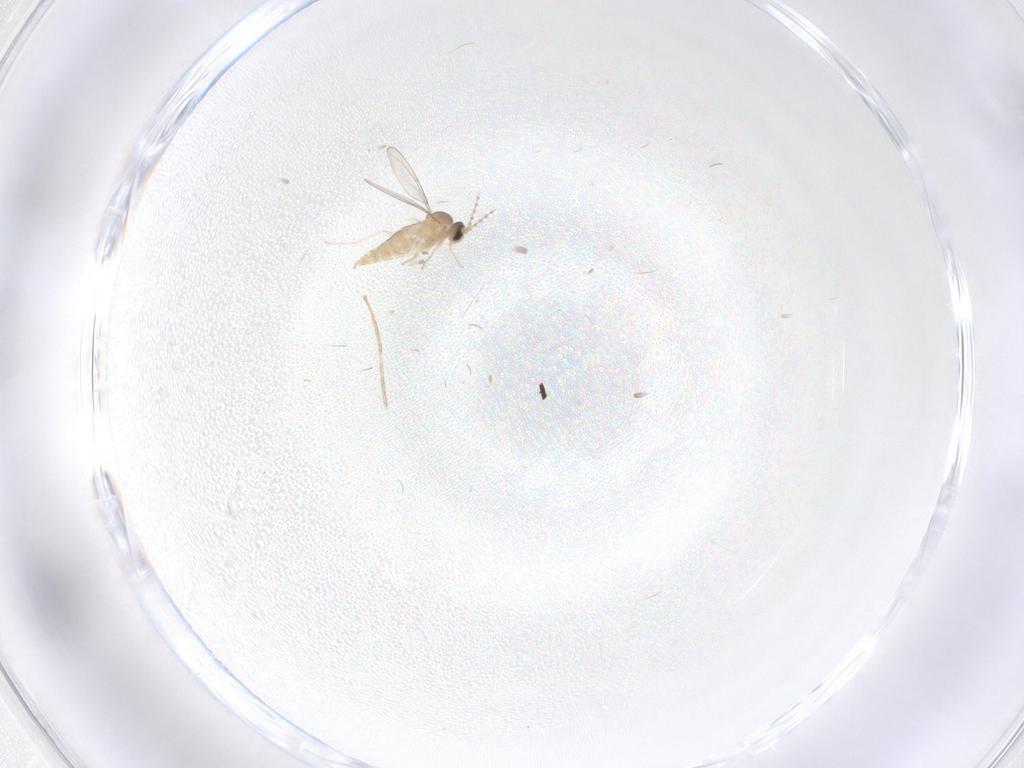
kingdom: Animalia
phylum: Arthropoda
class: Insecta
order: Diptera
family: Cecidomyiidae
